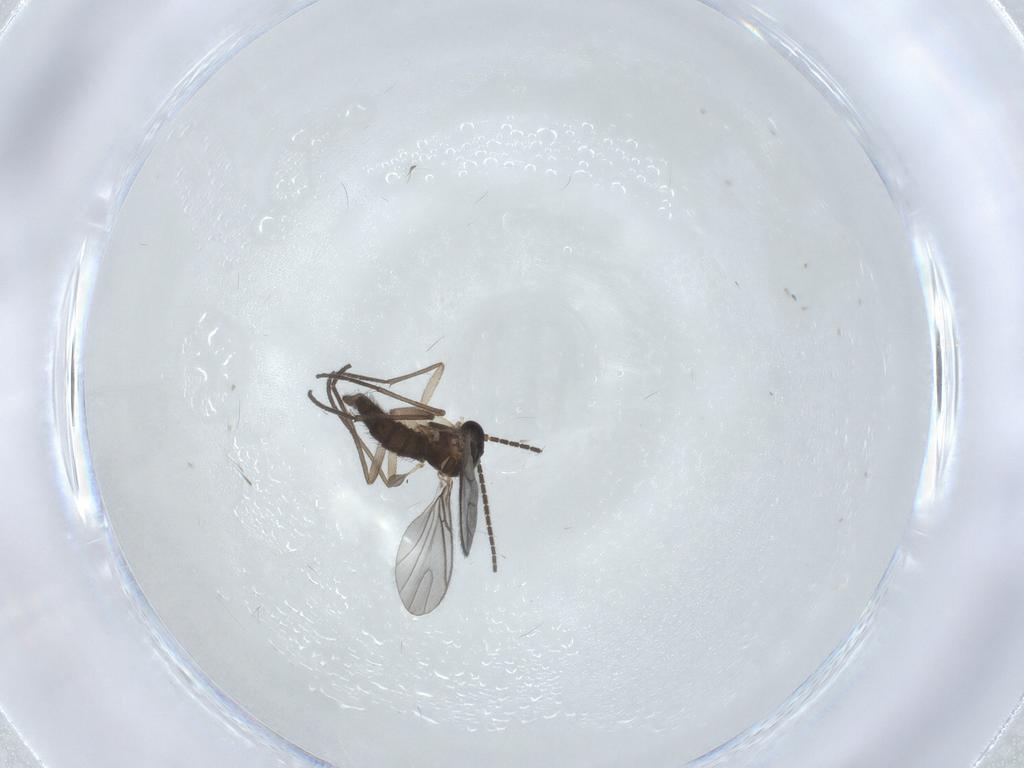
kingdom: Animalia
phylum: Arthropoda
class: Insecta
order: Diptera
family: Sciaridae
